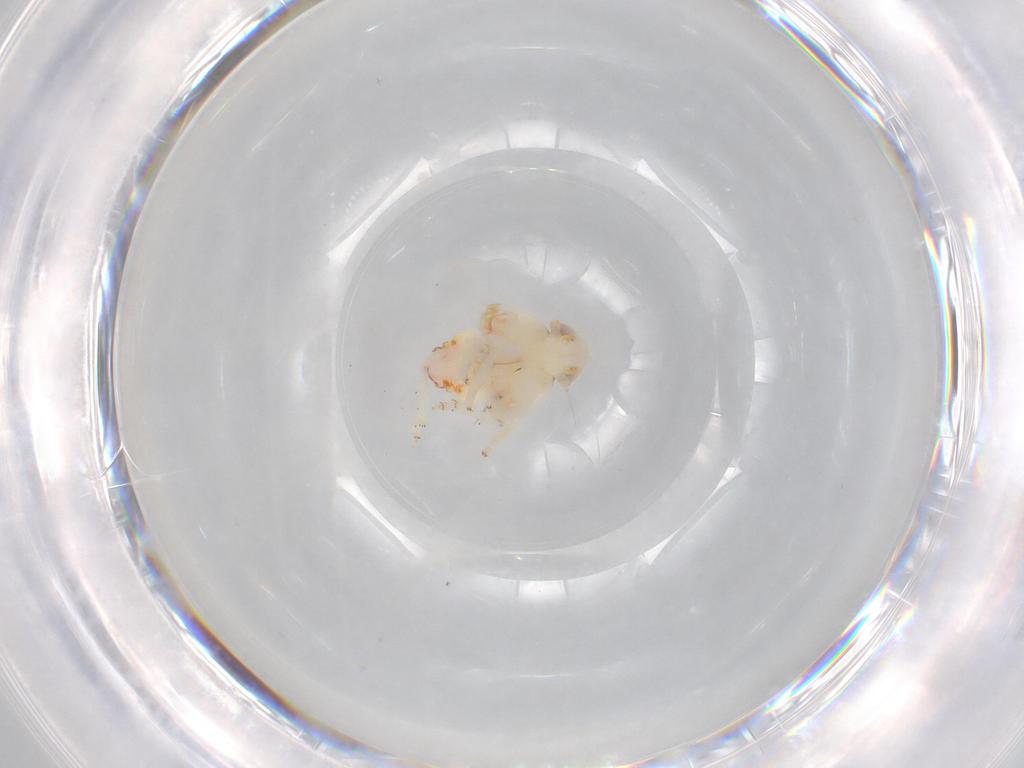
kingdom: Animalia
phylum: Arthropoda
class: Insecta
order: Hemiptera
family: Nogodinidae
